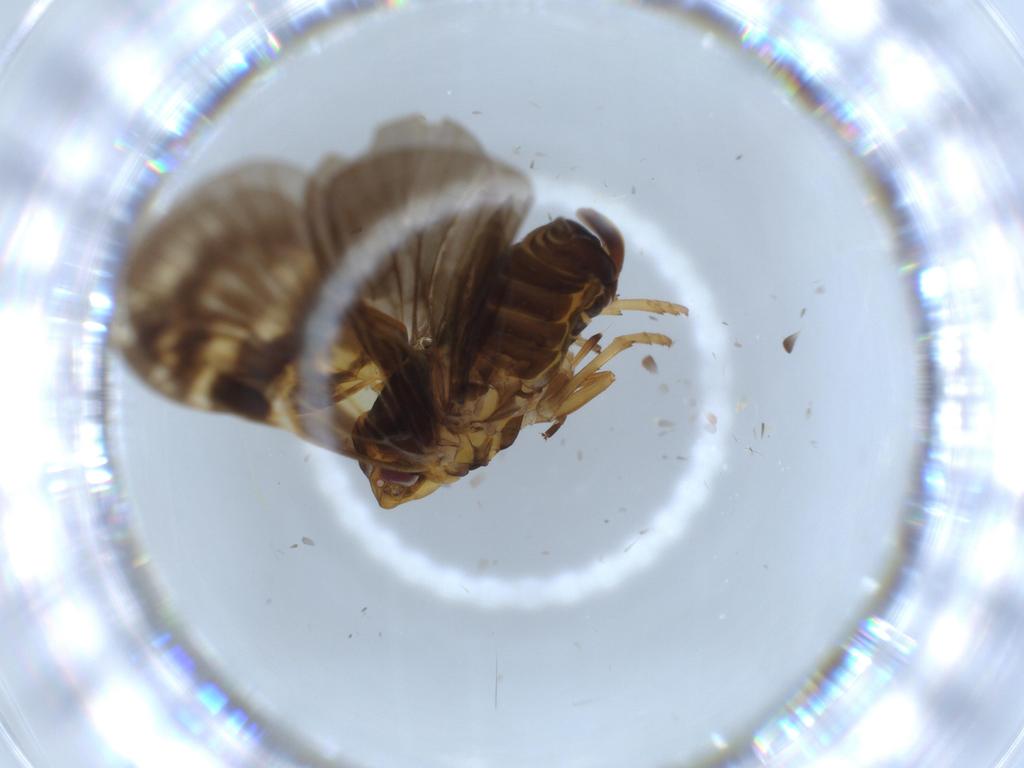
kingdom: Animalia
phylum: Arthropoda
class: Insecta
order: Hemiptera
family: Cixiidae
